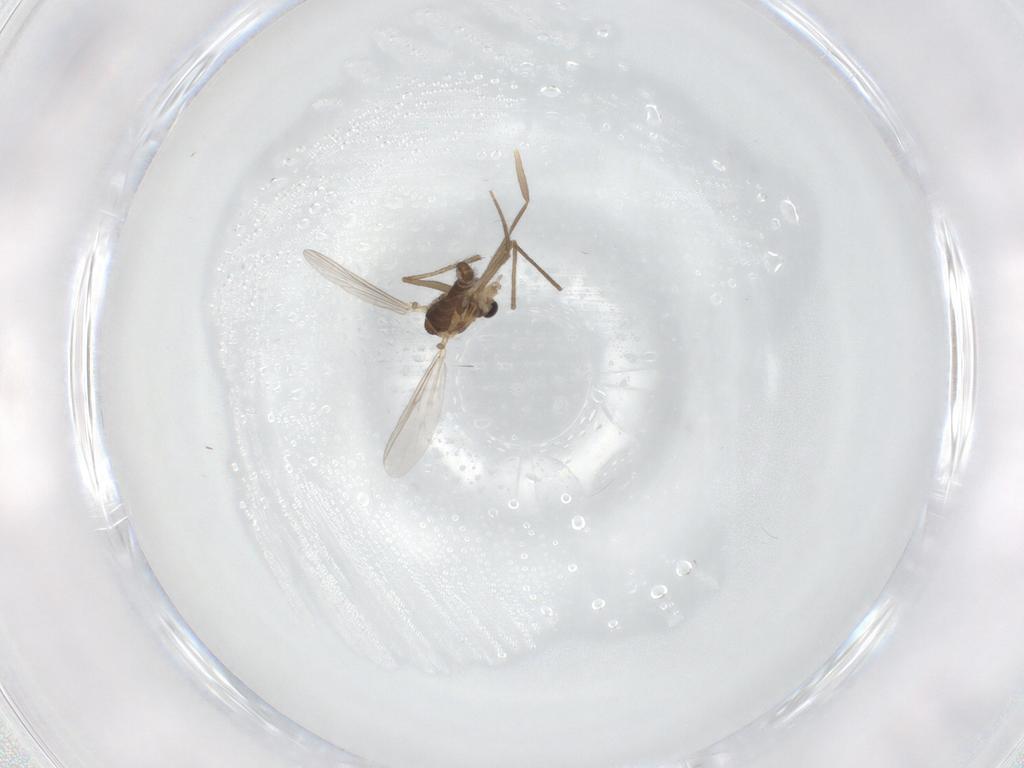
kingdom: Animalia
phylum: Arthropoda
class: Insecta
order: Diptera
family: Chironomidae
